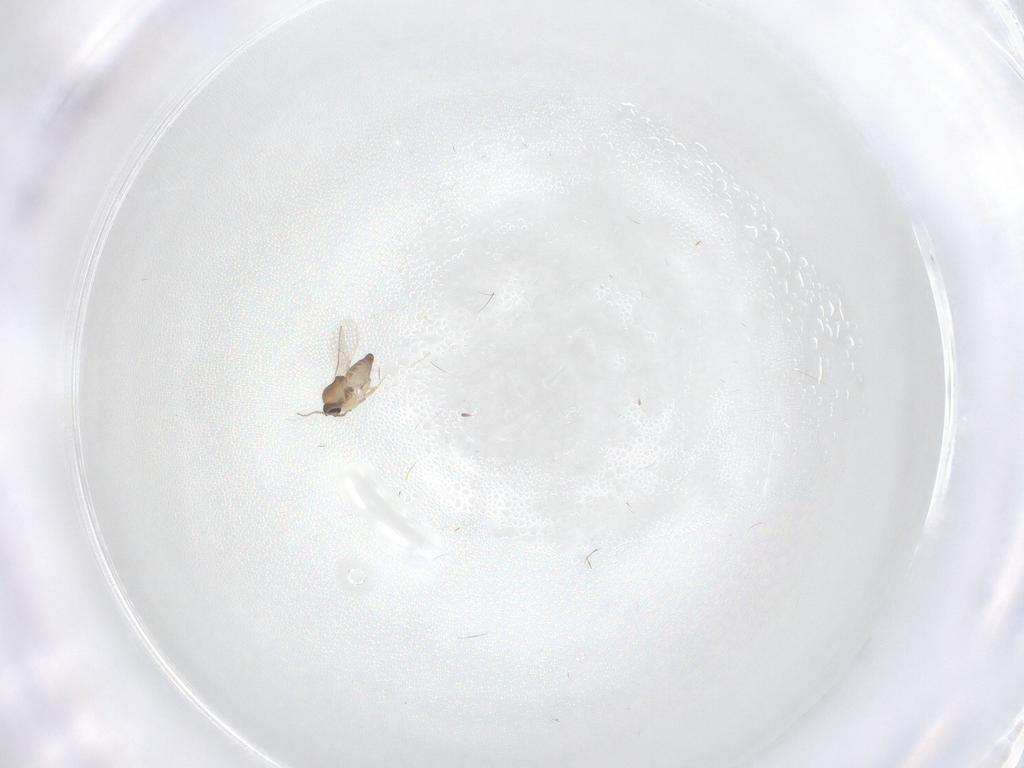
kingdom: Animalia
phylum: Arthropoda
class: Insecta
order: Diptera
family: Ceratopogonidae
